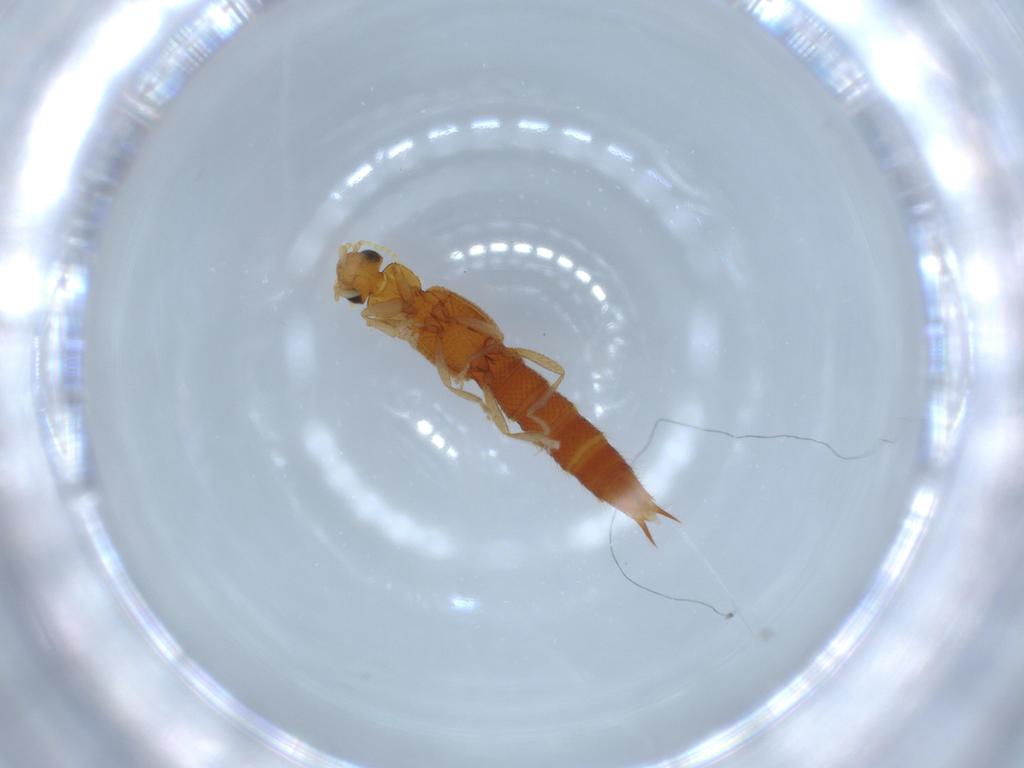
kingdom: Animalia
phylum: Arthropoda
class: Insecta
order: Coleoptera
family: Staphylinidae
